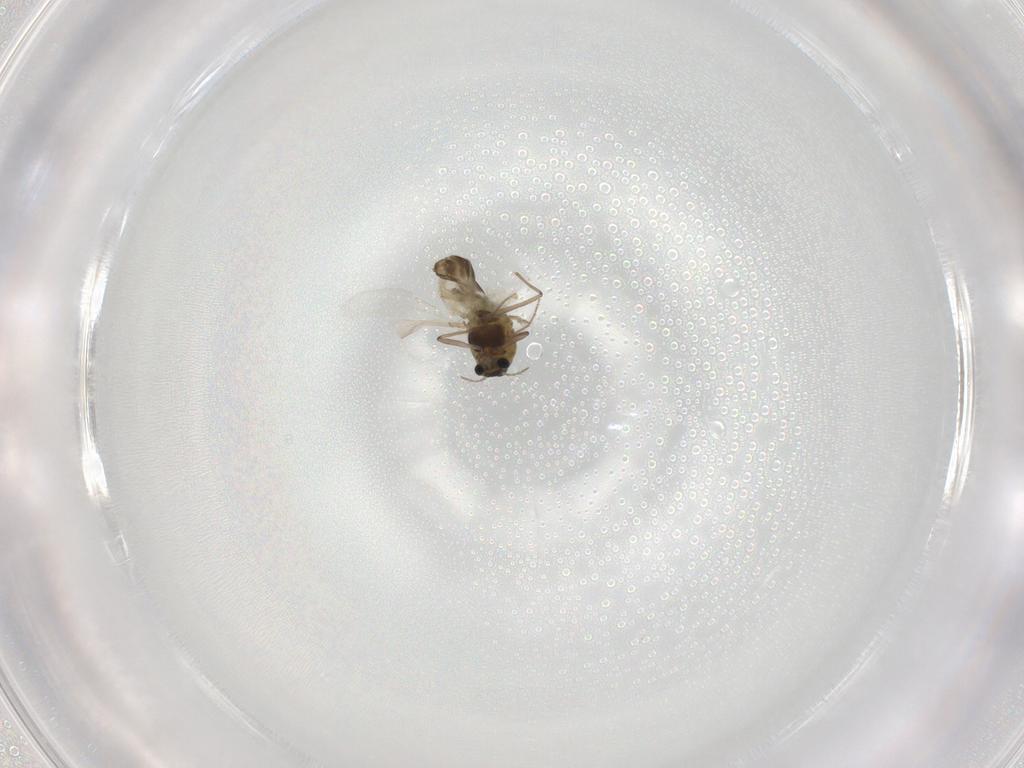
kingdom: Animalia
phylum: Arthropoda
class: Insecta
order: Diptera
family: Chironomidae
